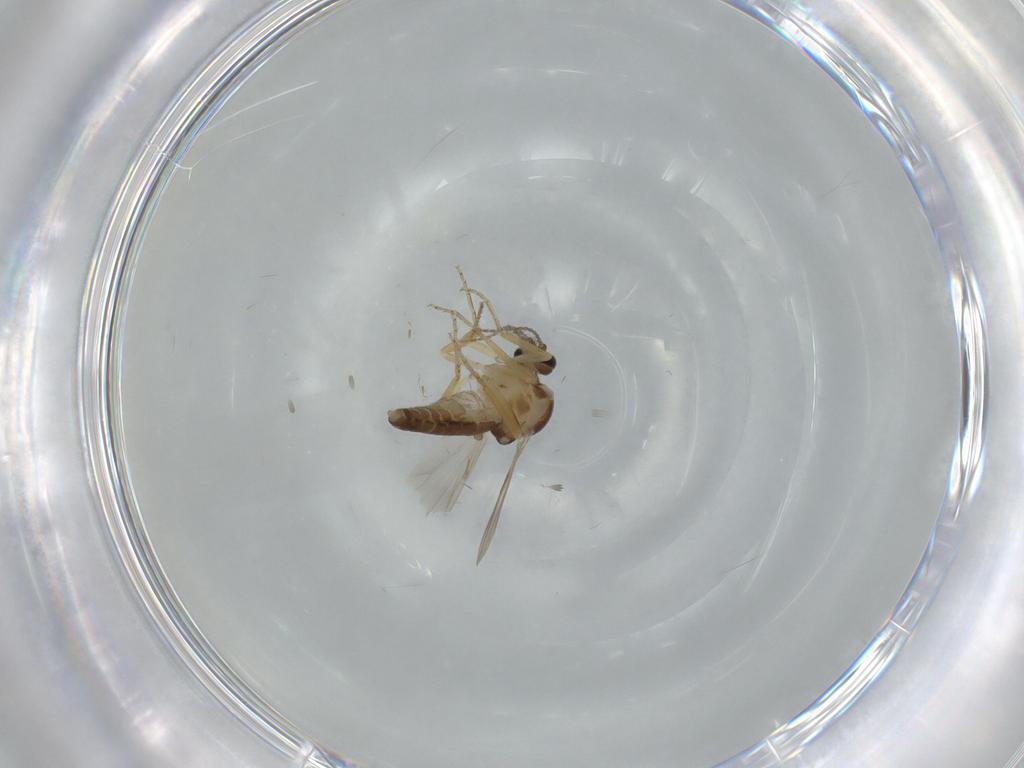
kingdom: Animalia
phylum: Arthropoda
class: Insecta
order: Diptera
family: Ceratopogonidae
